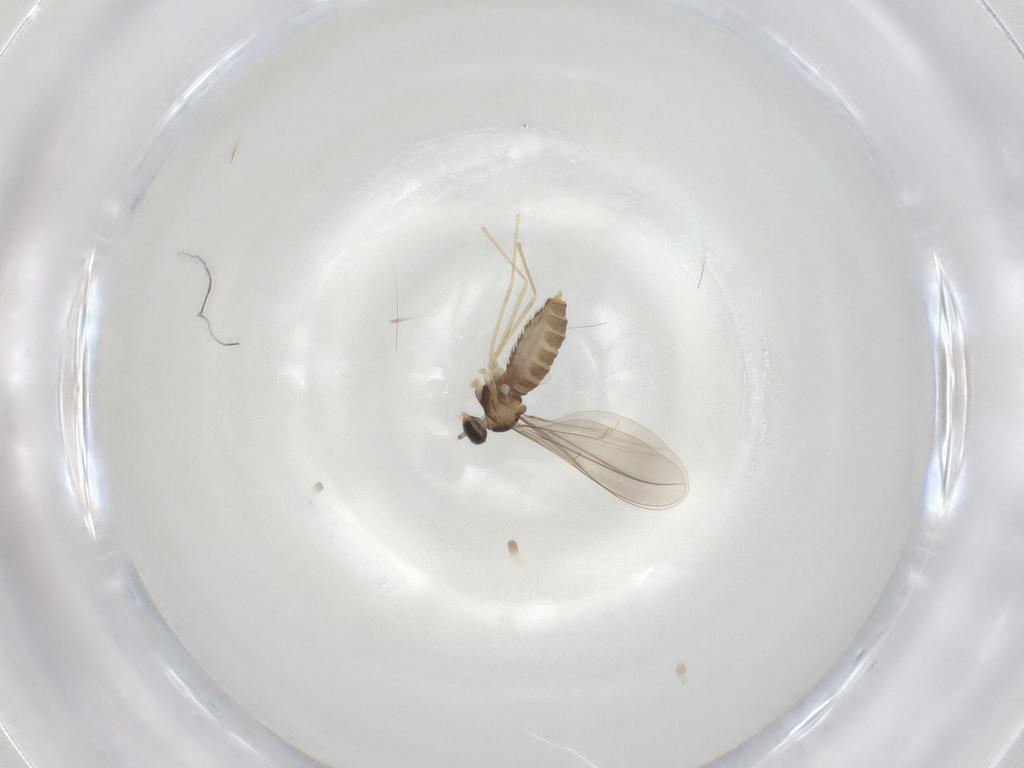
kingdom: Animalia
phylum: Arthropoda
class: Insecta
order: Diptera
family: Cecidomyiidae
